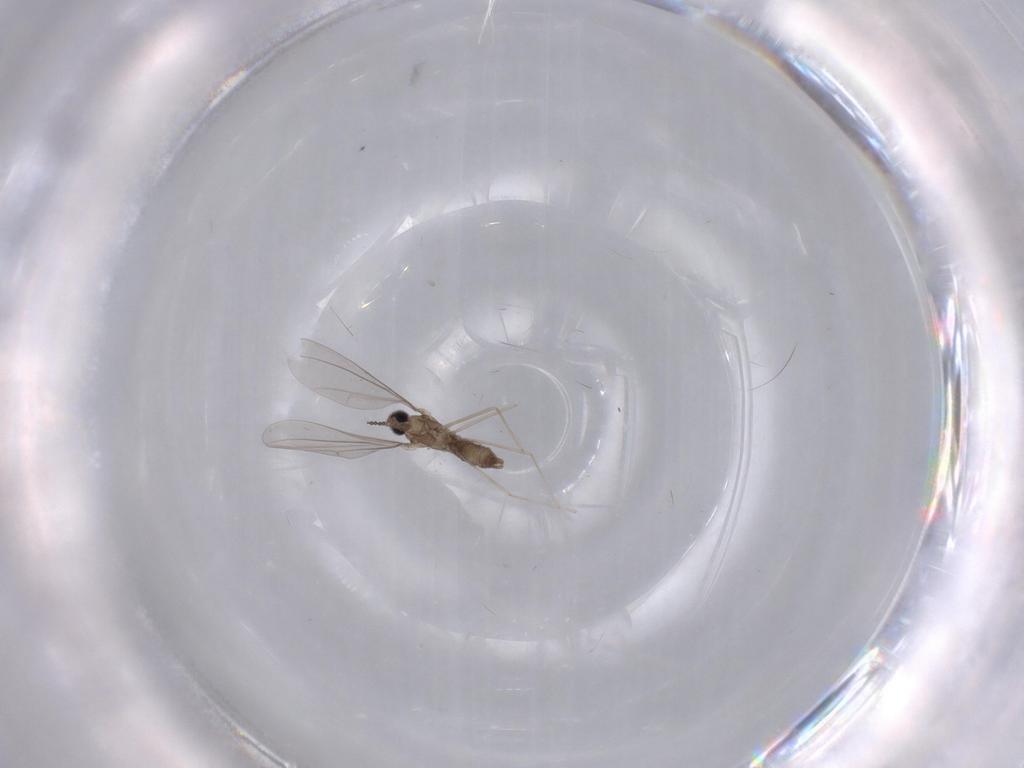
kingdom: Animalia
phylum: Arthropoda
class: Insecta
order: Diptera
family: Cecidomyiidae
